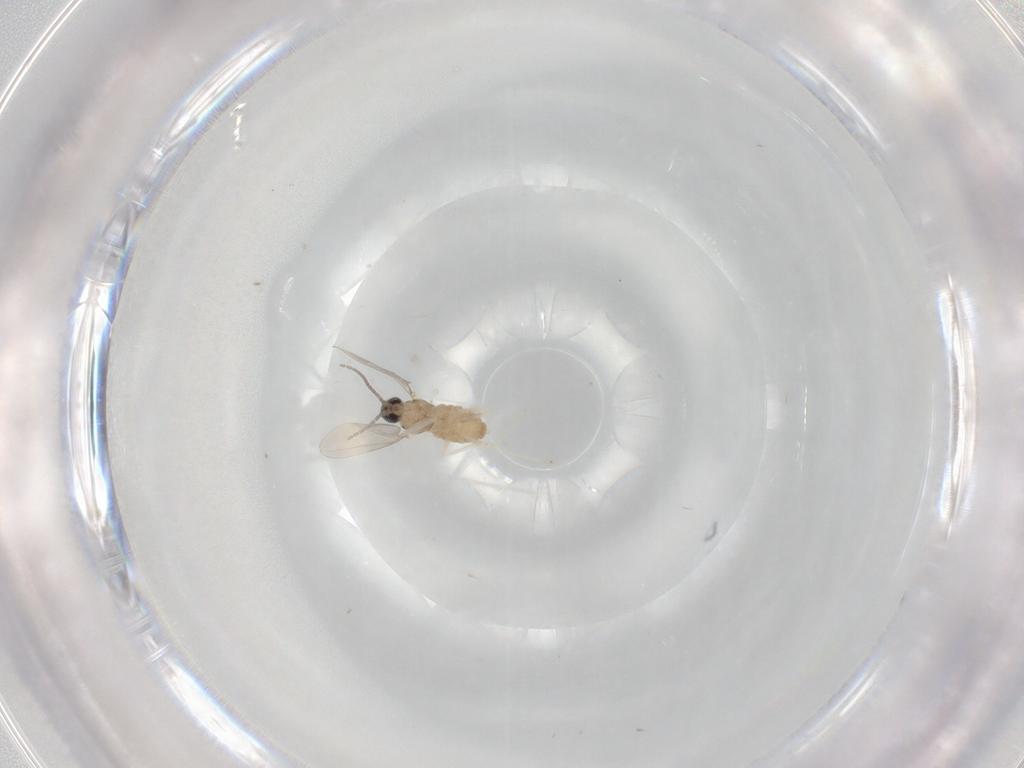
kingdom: Animalia
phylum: Arthropoda
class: Insecta
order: Diptera
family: Cecidomyiidae
